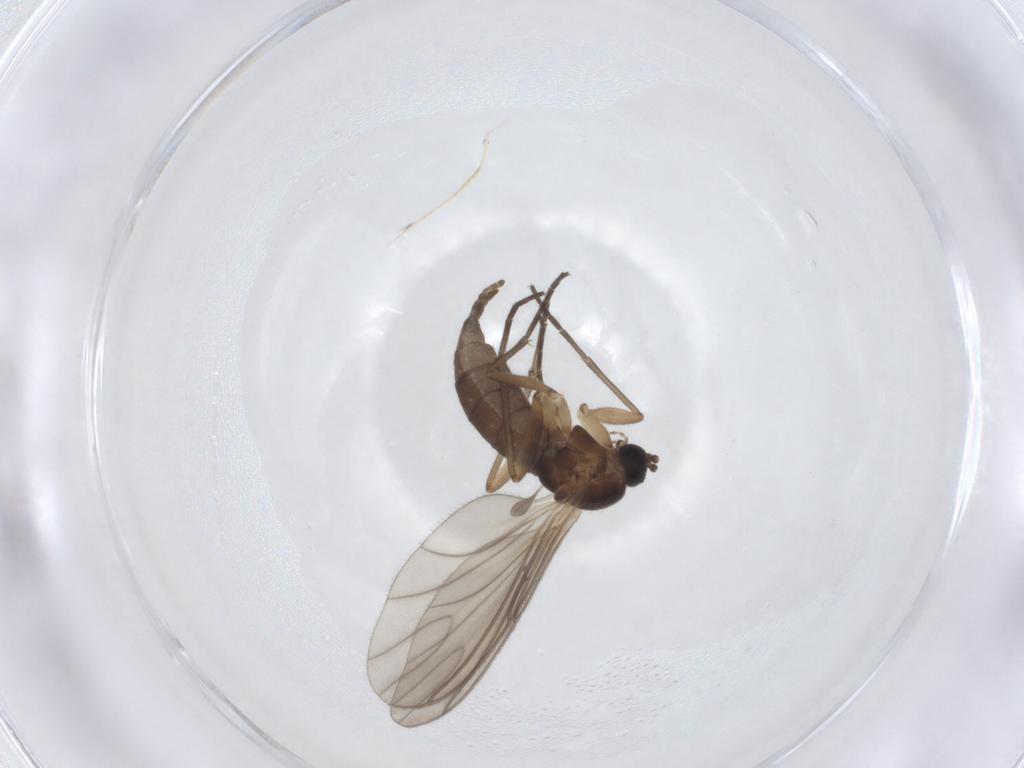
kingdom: Animalia
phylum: Arthropoda
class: Insecta
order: Diptera
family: Sciaridae
